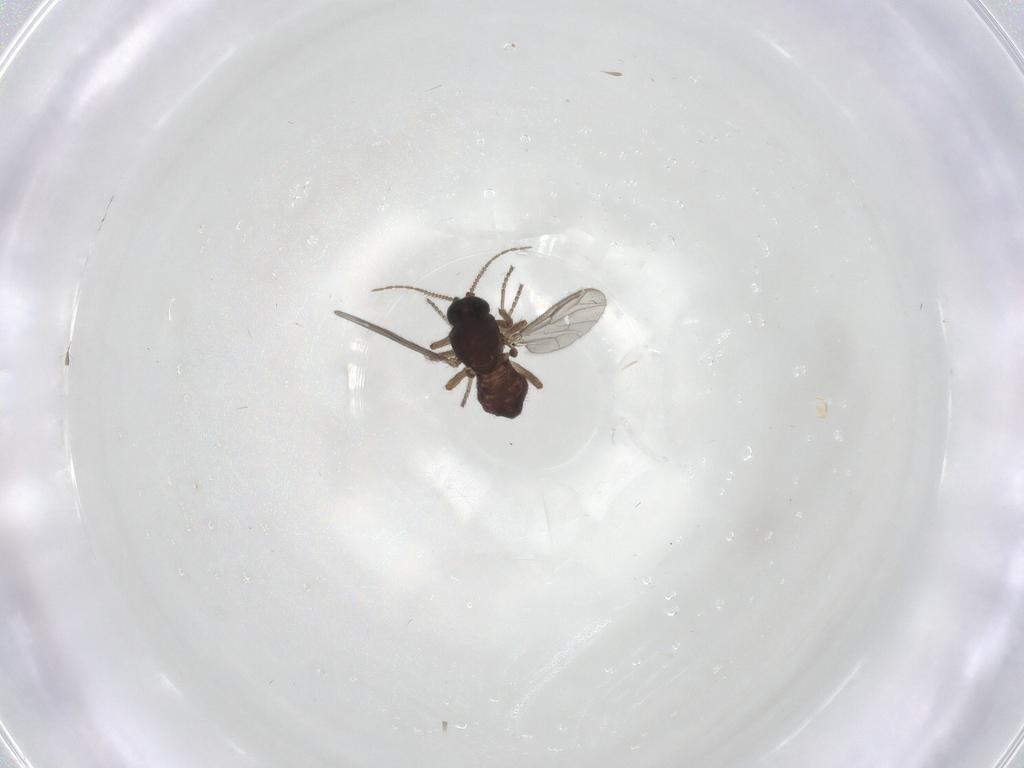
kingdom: Animalia
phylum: Arthropoda
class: Insecta
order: Diptera
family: Ceratopogonidae
